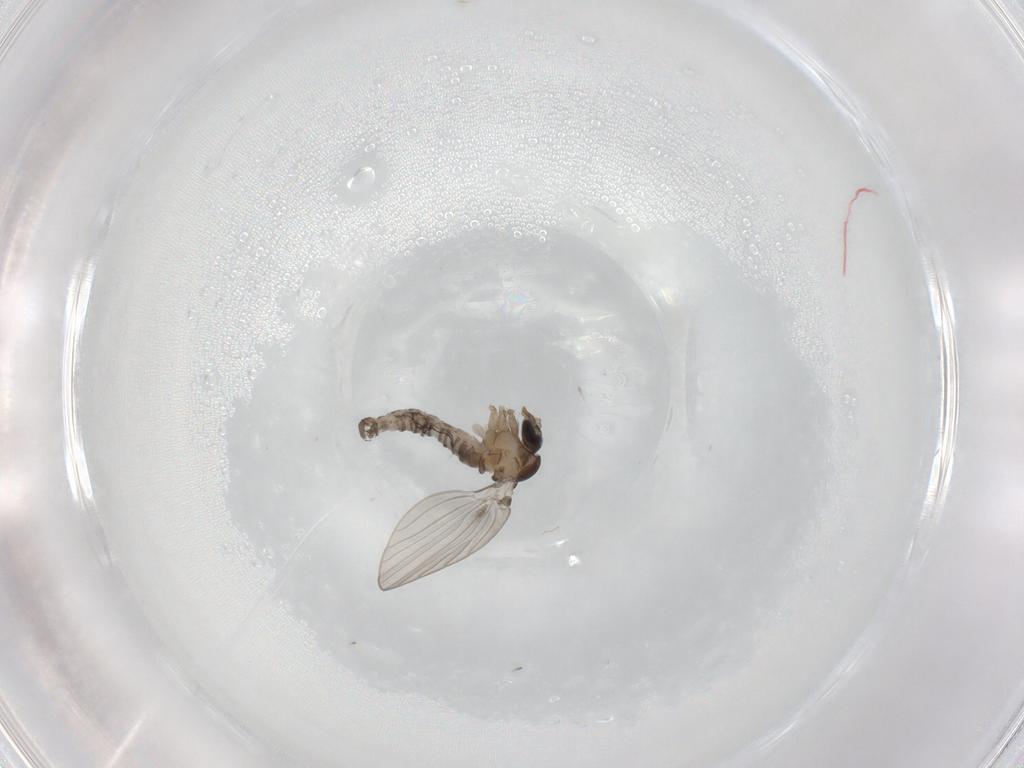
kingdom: Animalia
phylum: Arthropoda
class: Insecta
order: Diptera
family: Psychodidae
